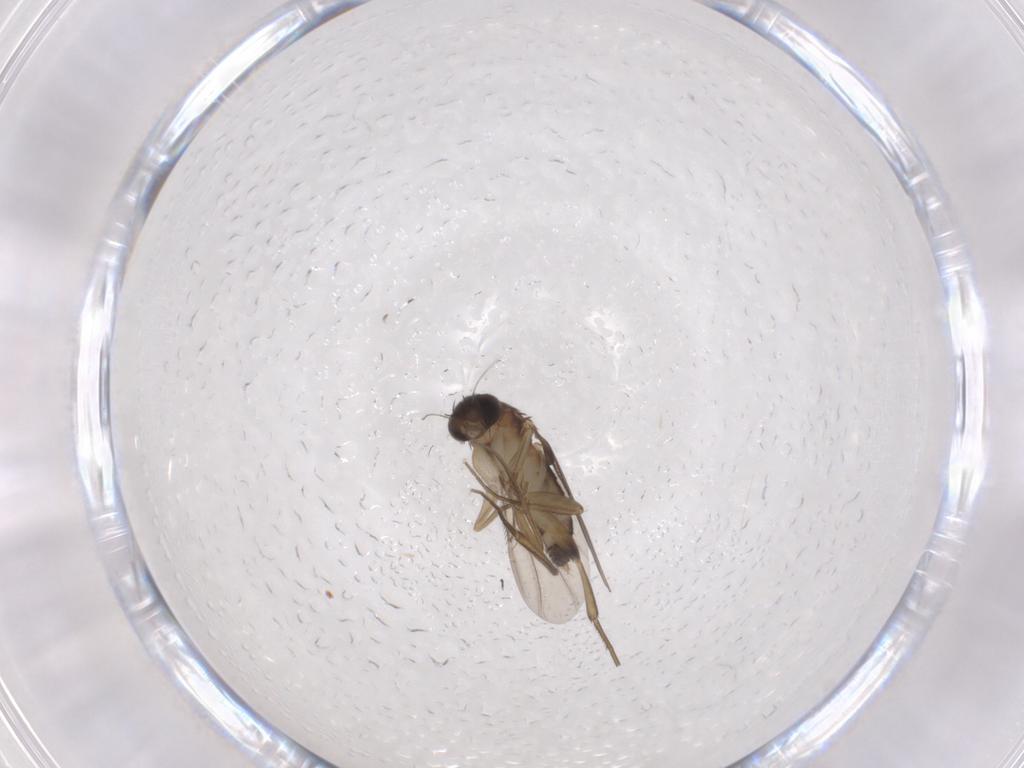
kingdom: Animalia
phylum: Arthropoda
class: Insecta
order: Diptera
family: Phoridae
